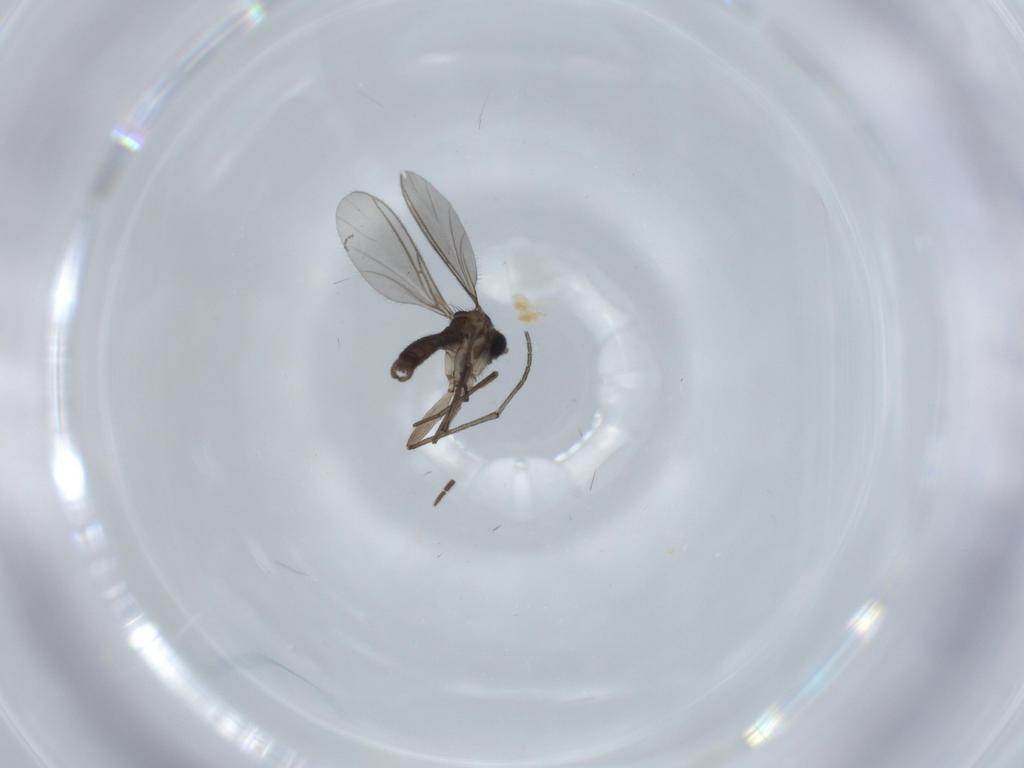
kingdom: Animalia
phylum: Arthropoda
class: Insecta
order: Diptera
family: Sciaridae
